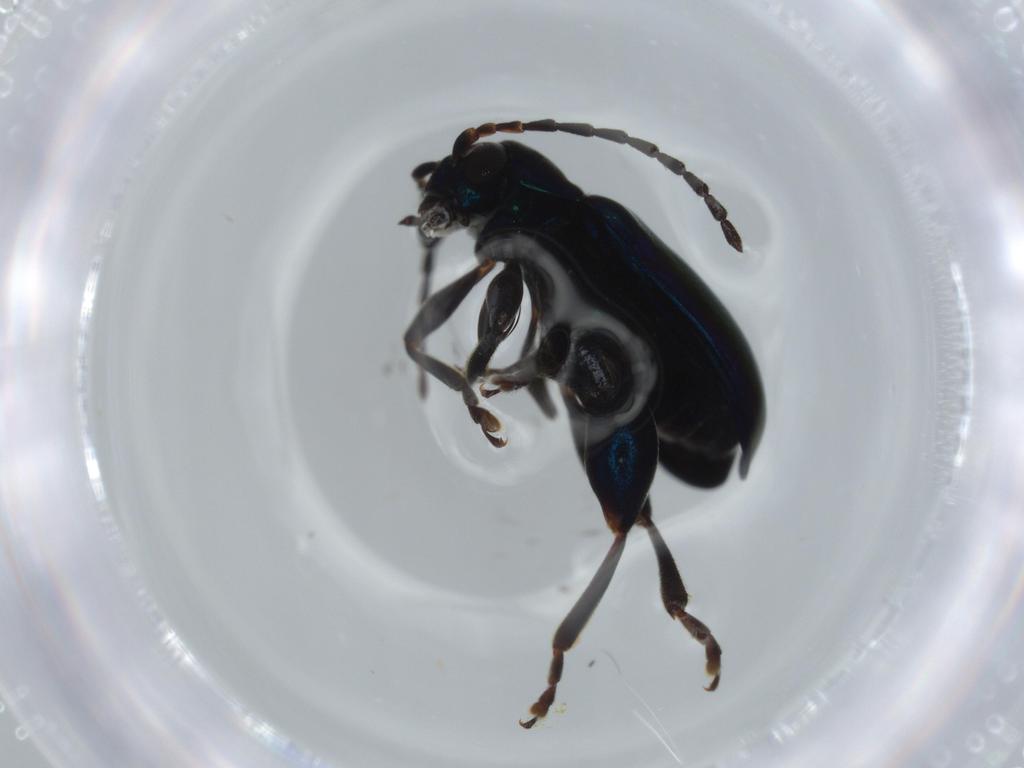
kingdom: Animalia
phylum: Arthropoda
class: Insecta
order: Coleoptera
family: Chrysomelidae
